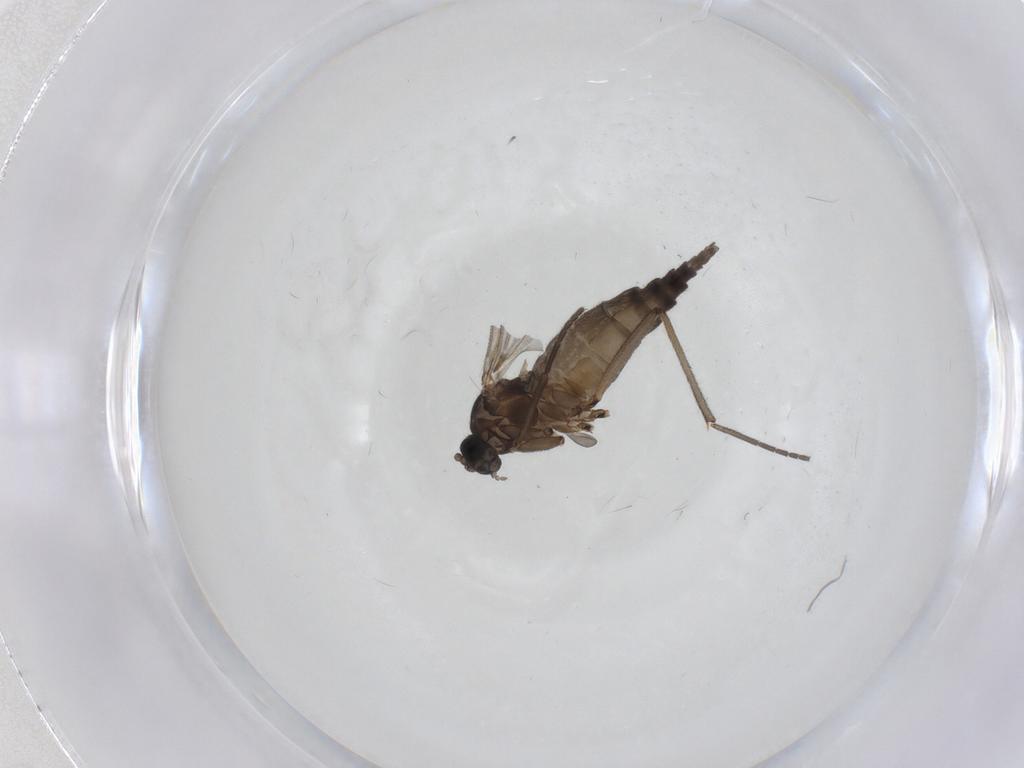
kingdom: Animalia
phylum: Arthropoda
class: Insecta
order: Diptera
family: Sciaridae
